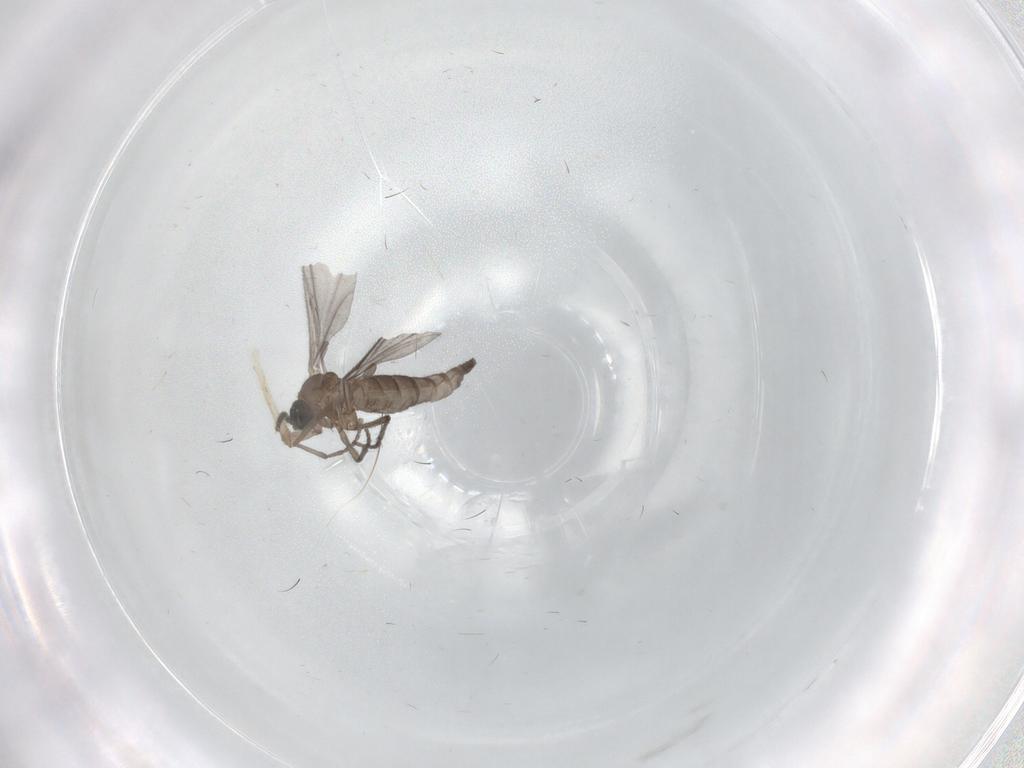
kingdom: Animalia
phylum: Arthropoda
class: Insecta
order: Diptera
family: Sciaridae
